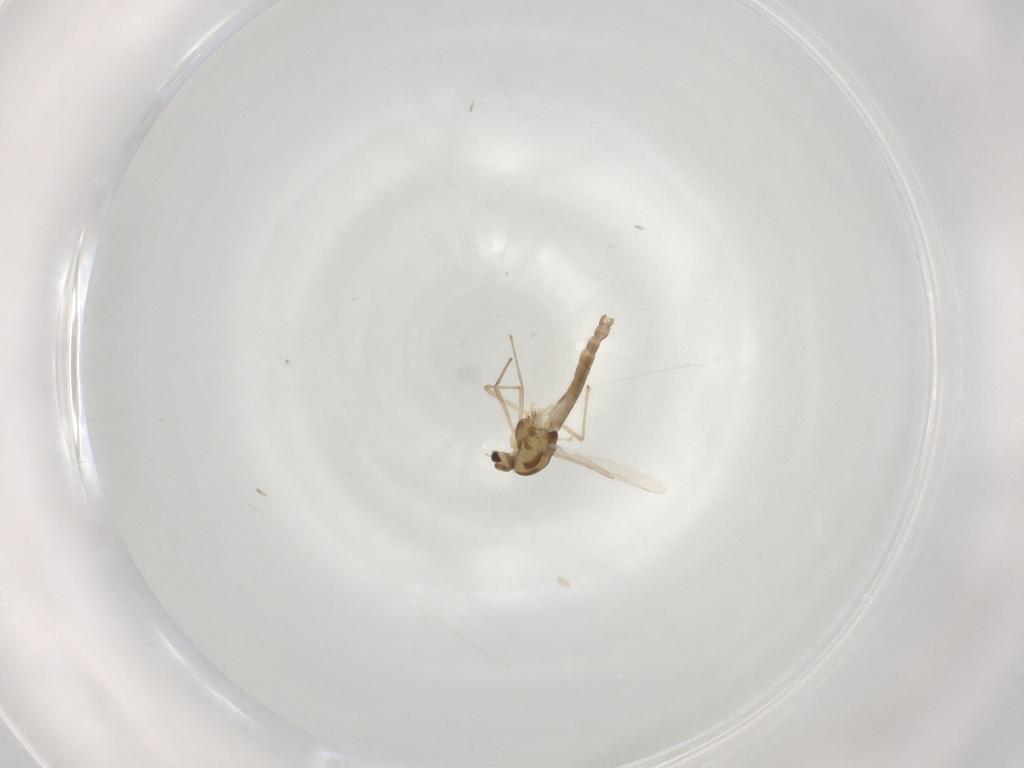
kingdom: Animalia
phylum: Arthropoda
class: Insecta
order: Diptera
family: Chironomidae
